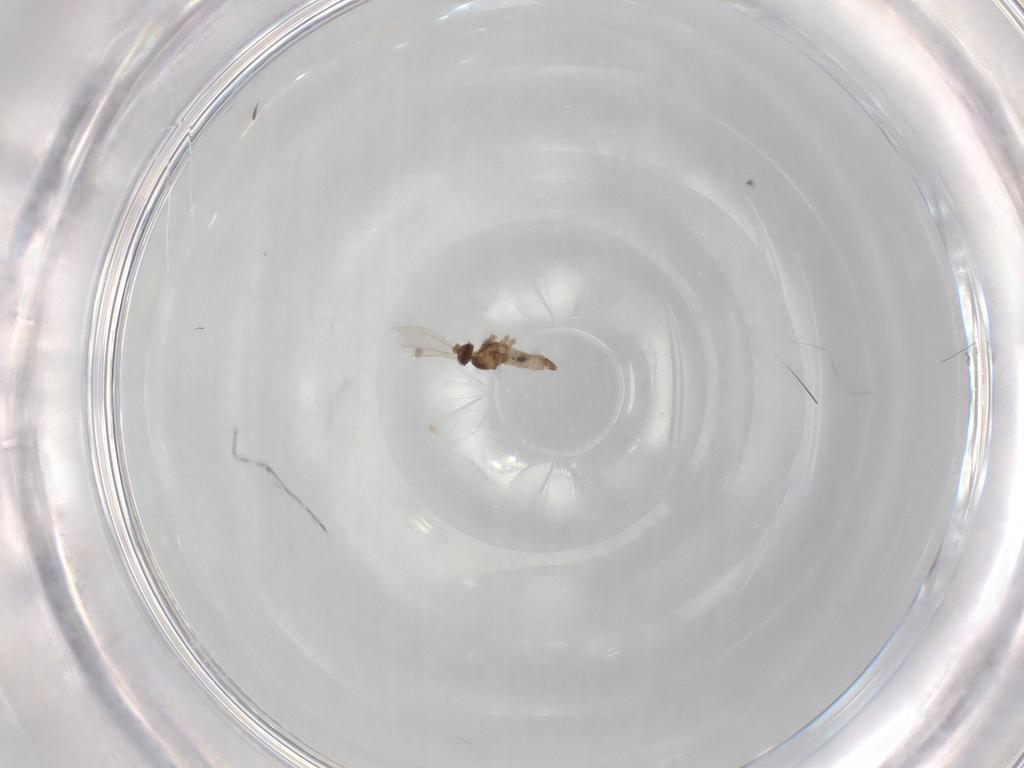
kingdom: Animalia
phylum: Arthropoda
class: Insecta
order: Diptera
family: Cecidomyiidae
